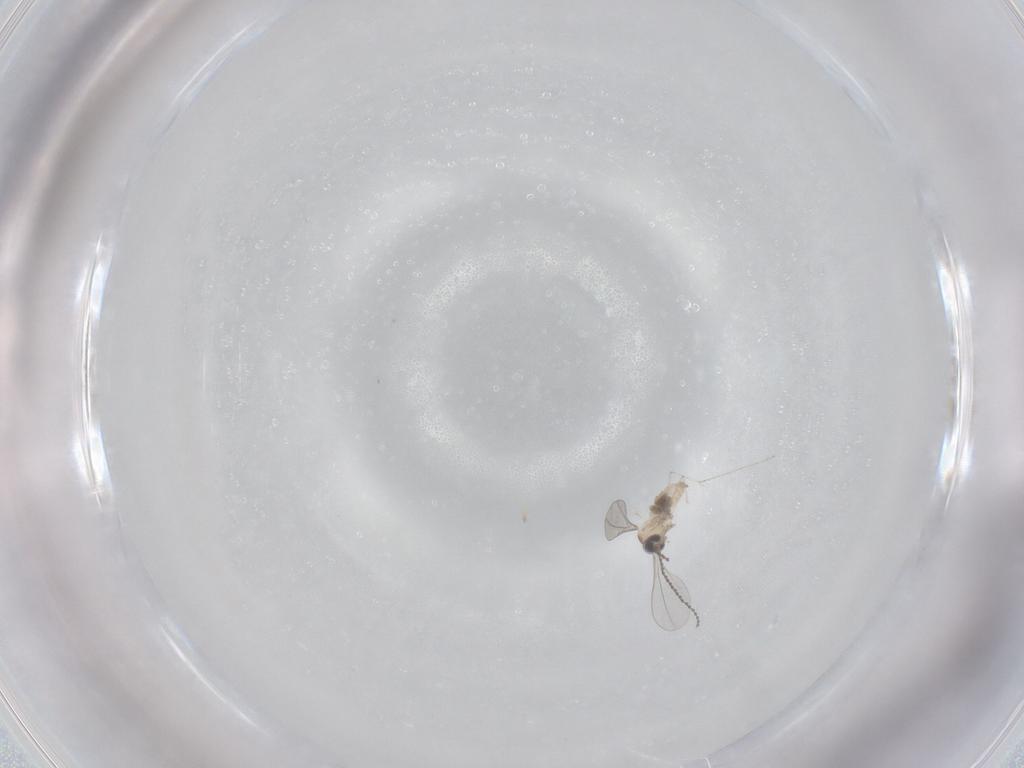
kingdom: Animalia
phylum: Arthropoda
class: Insecta
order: Diptera
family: Cecidomyiidae
